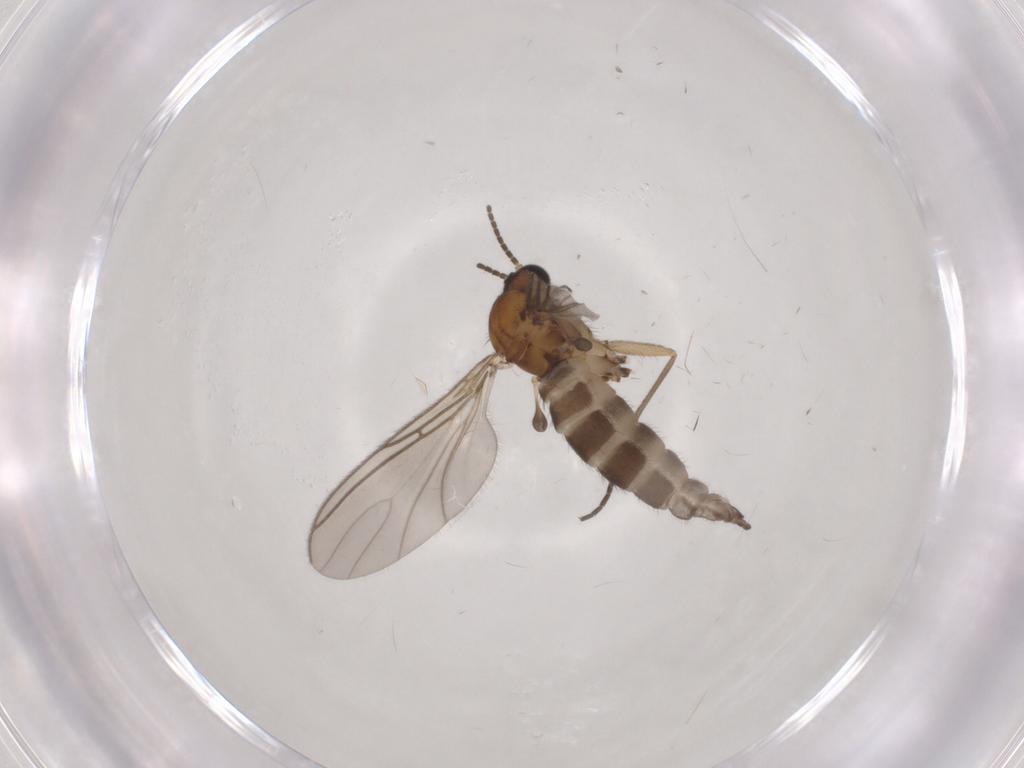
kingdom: Animalia
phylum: Arthropoda
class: Insecta
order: Diptera
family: Sciaridae
